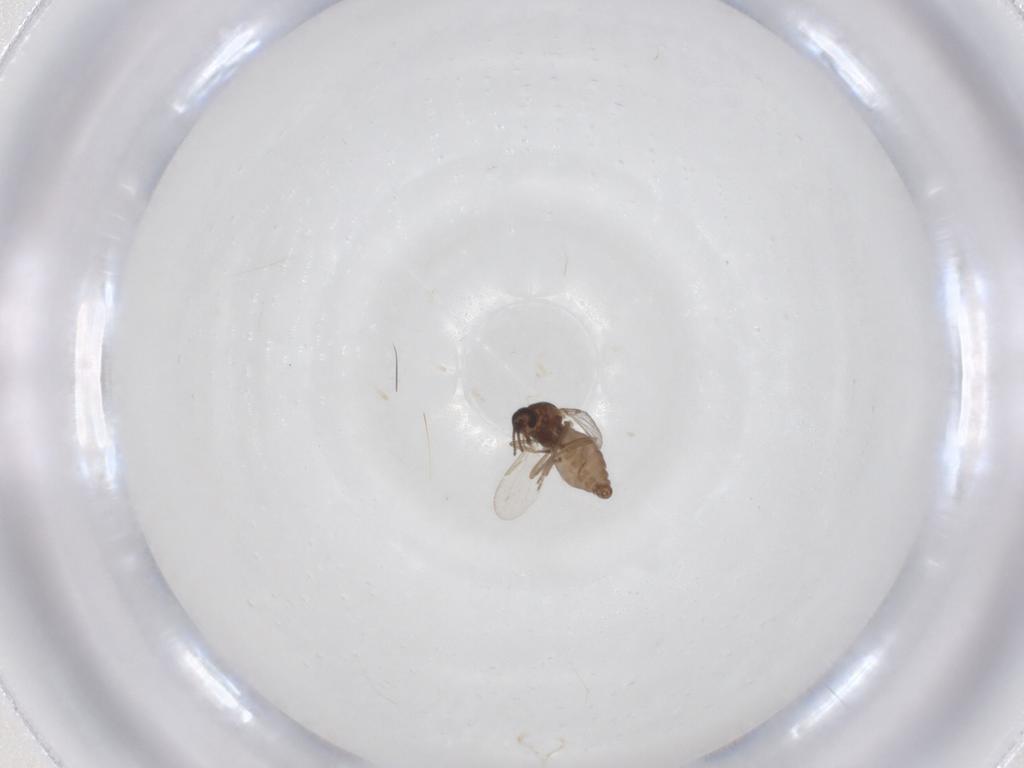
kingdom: Animalia
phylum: Arthropoda
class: Insecta
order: Diptera
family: Ceratopogonidae
